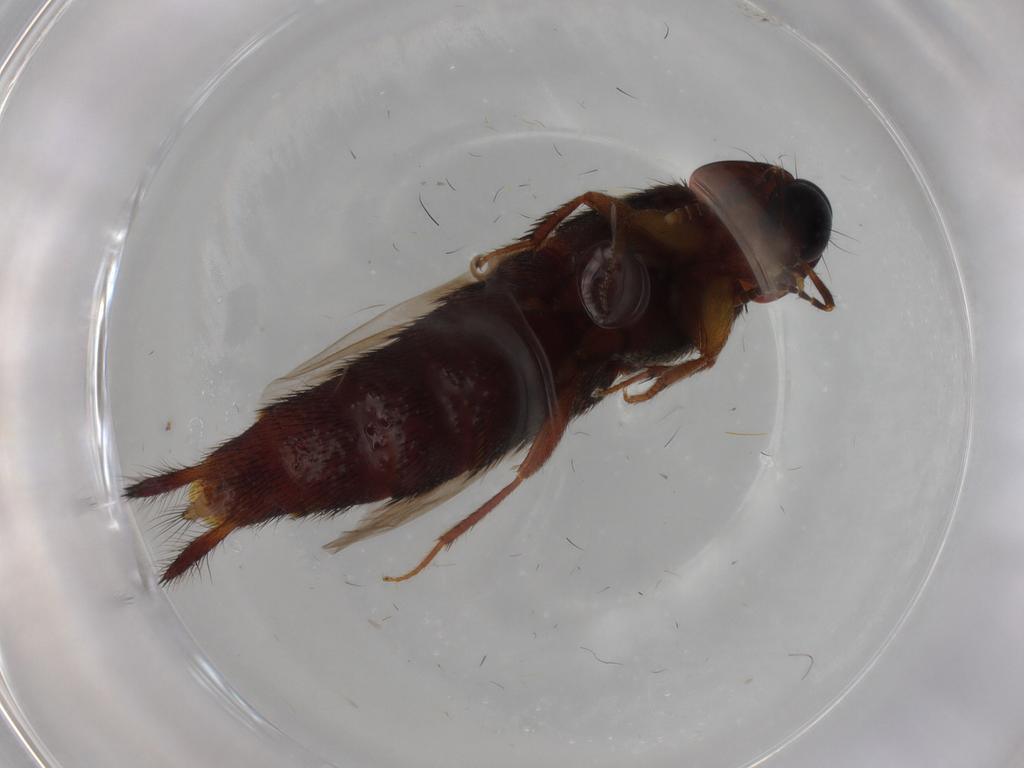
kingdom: Animalia
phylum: Arthropoda
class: Insecta
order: Coleoptera
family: Staphylinidae
